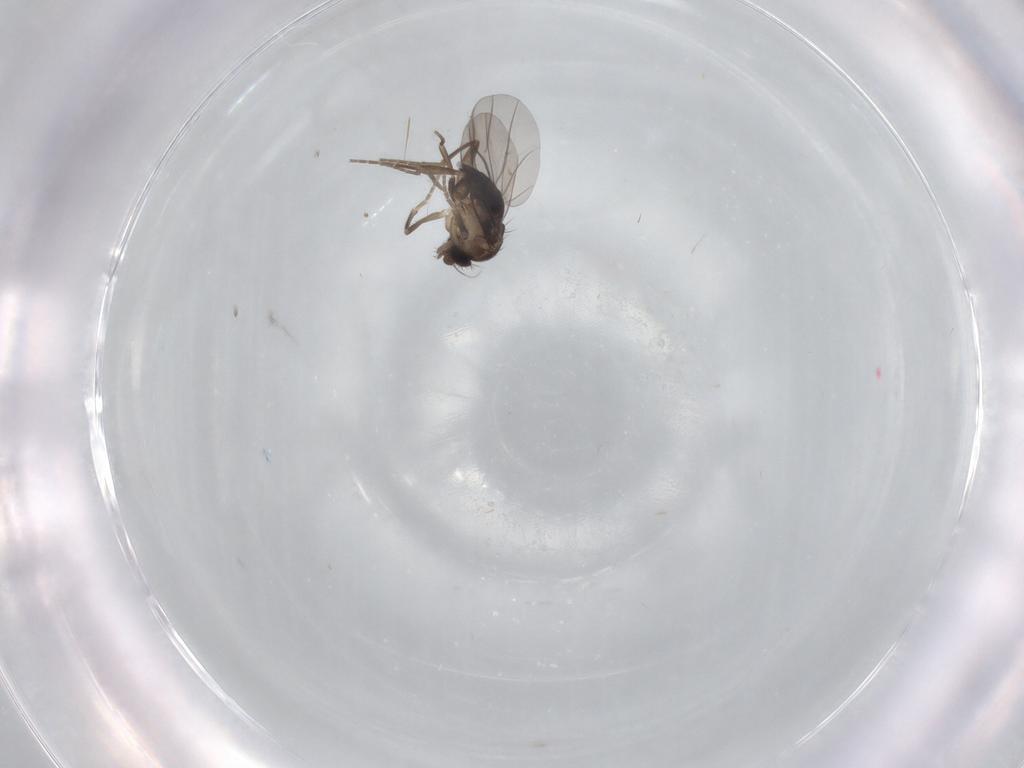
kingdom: Animalia
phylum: Arthropoda
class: Insecta
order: Diptera
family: Phoridae
